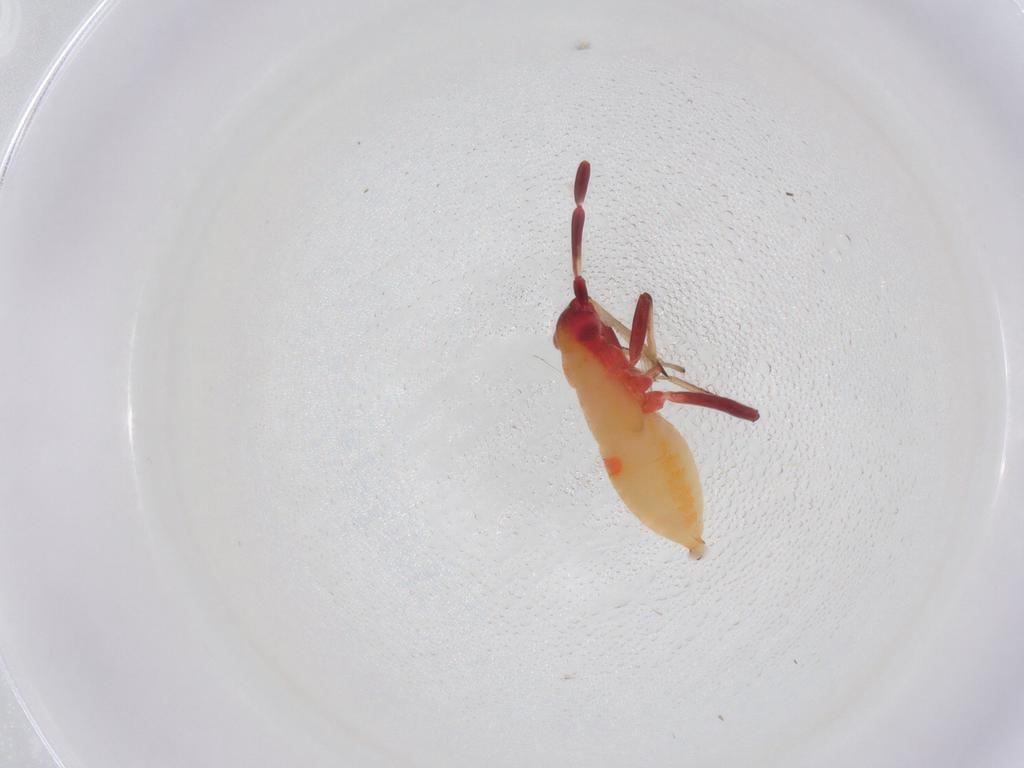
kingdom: Animalia
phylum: Arthropoda
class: Insecta
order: Hemiptera
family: Miridae
